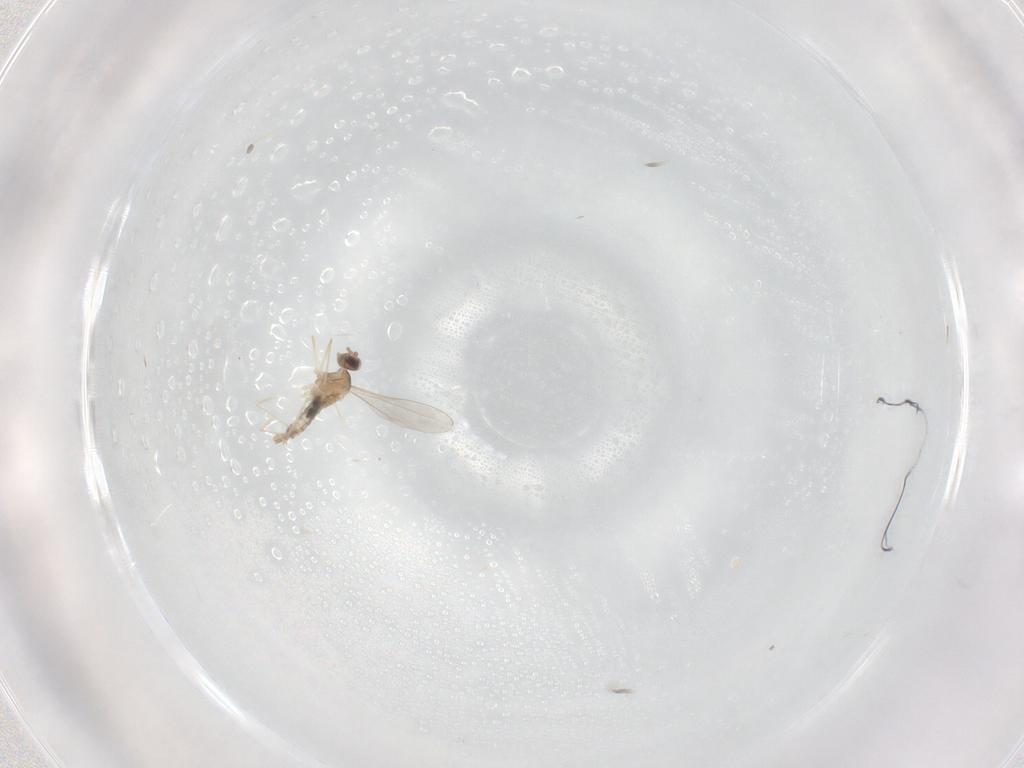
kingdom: Animalia
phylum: Arthropoda
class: Insecta
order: Diptera
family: Cecidomyiidae
